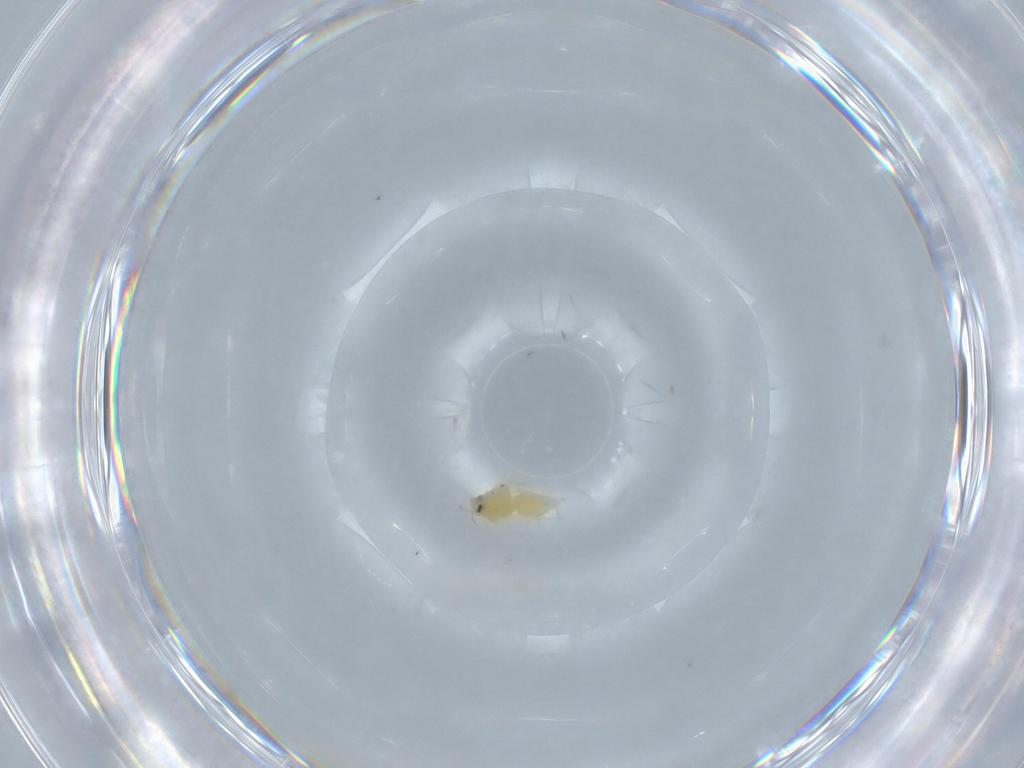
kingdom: Animalia
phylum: Arthropoda
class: Insecta
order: Hemiptera
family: Aleyrodidae
